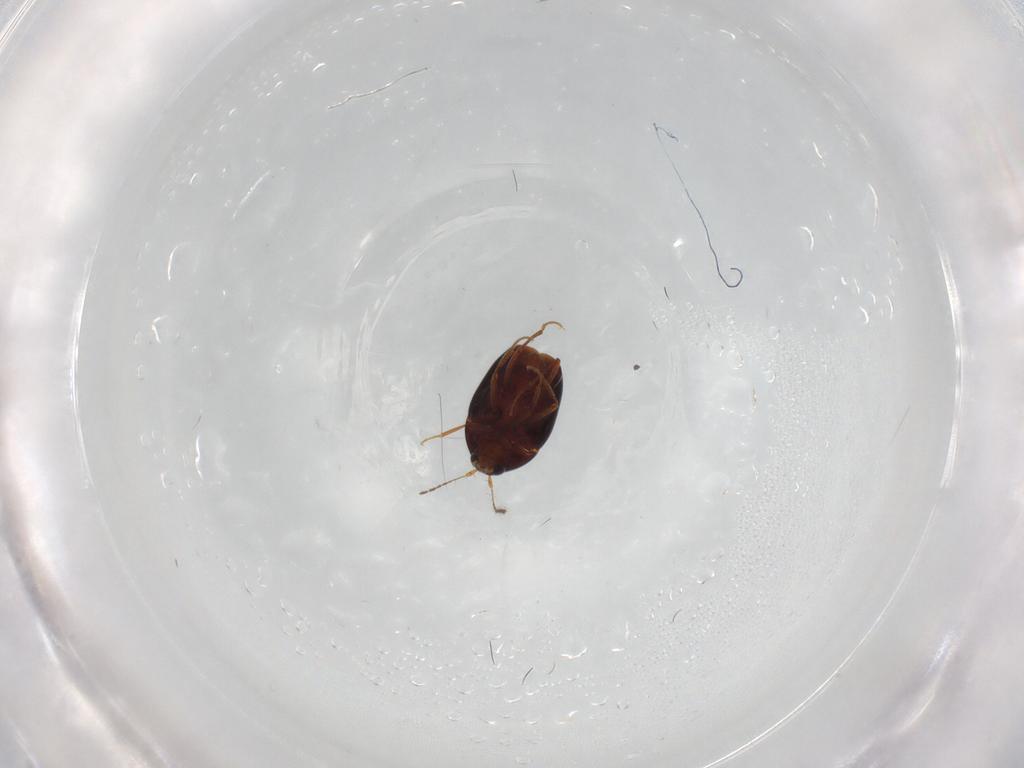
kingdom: Animalia
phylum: Arthropoda
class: Insecta
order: Coleoptera
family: Staphylinidae
